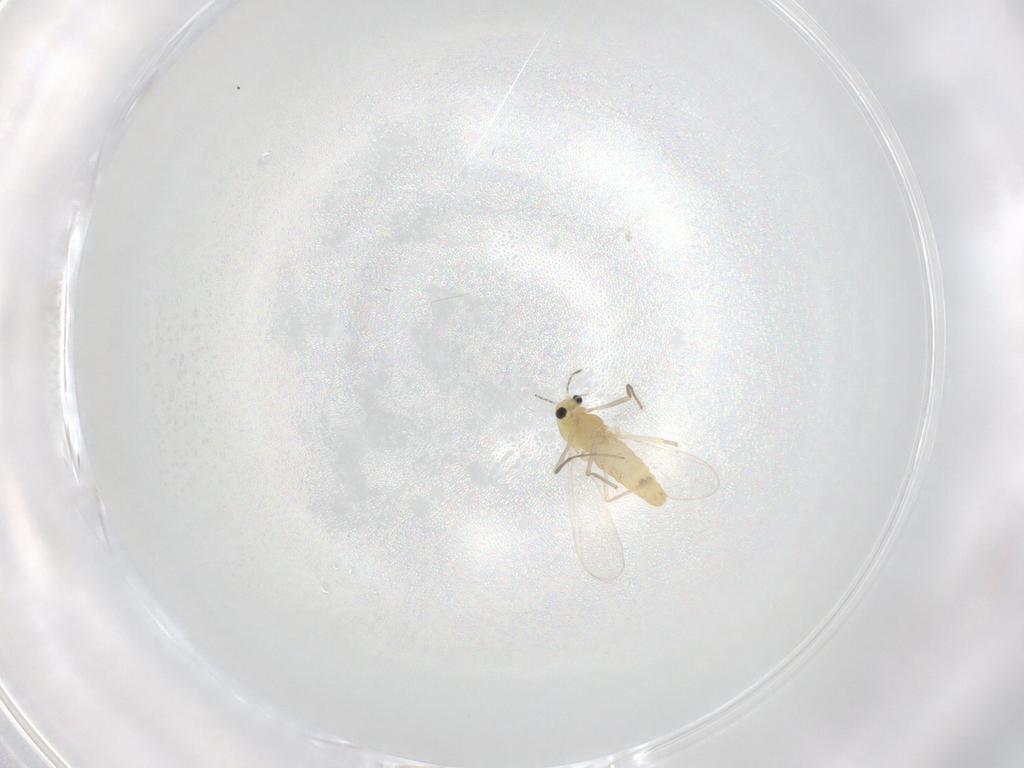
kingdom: Animalia
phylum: Arthropoda
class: Insecta
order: Diptera
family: Chironomidae
